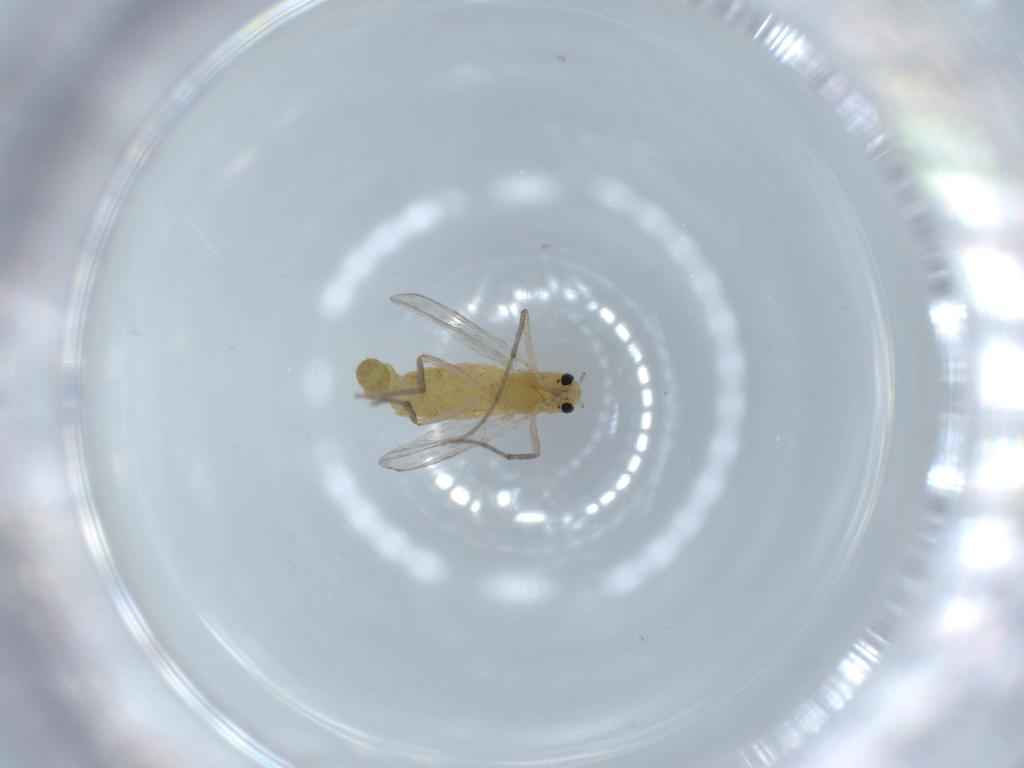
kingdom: Animalia
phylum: Arthropoda
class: Insecta
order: Diptera
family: Chironomidae
